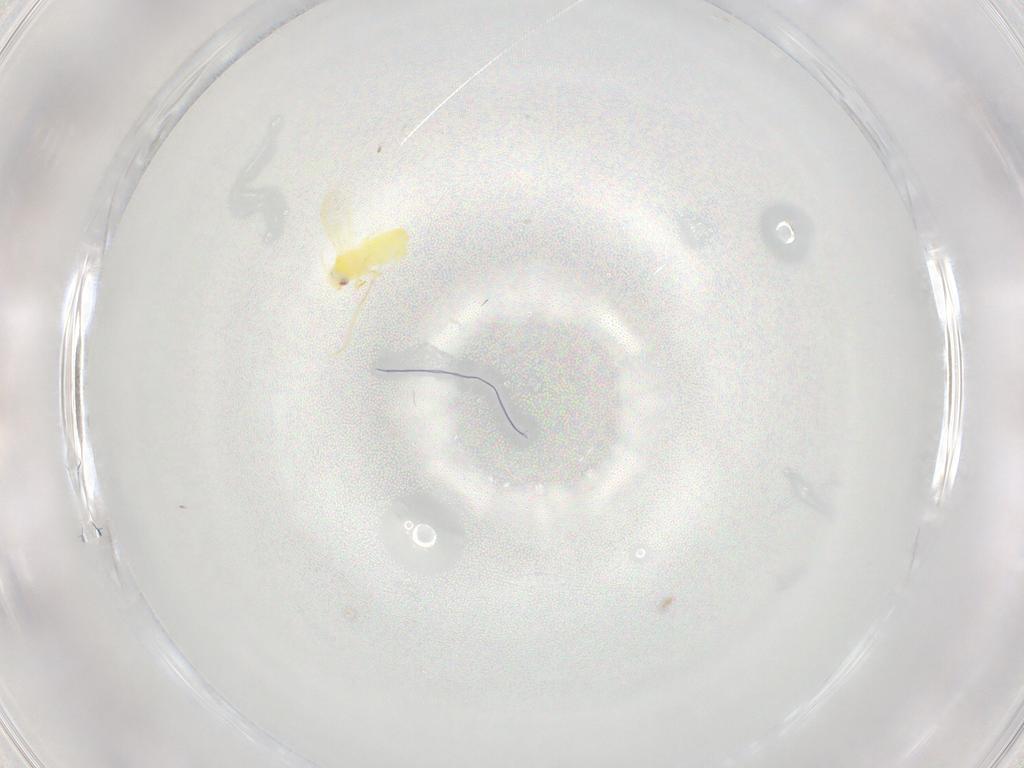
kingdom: Animalia
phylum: Arthropoda
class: Insecta
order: Hemiptera
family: Aleyrodidae
